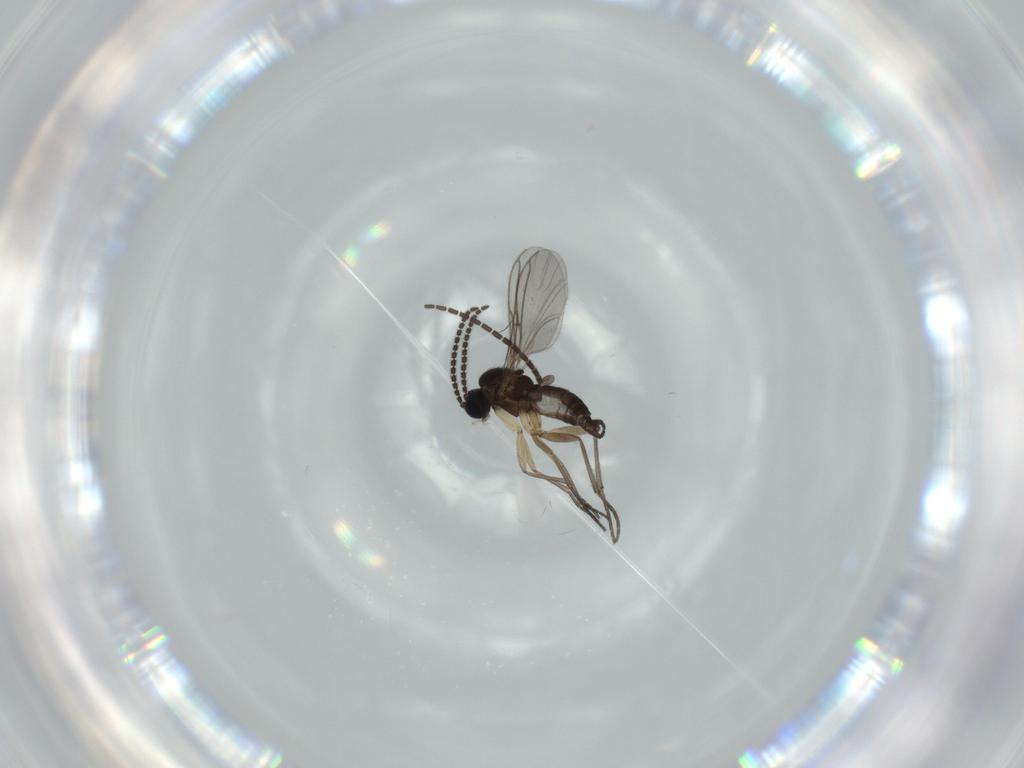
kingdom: Animalia
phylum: Arthropoda
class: Insecta
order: Diptera
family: Sciaridae
